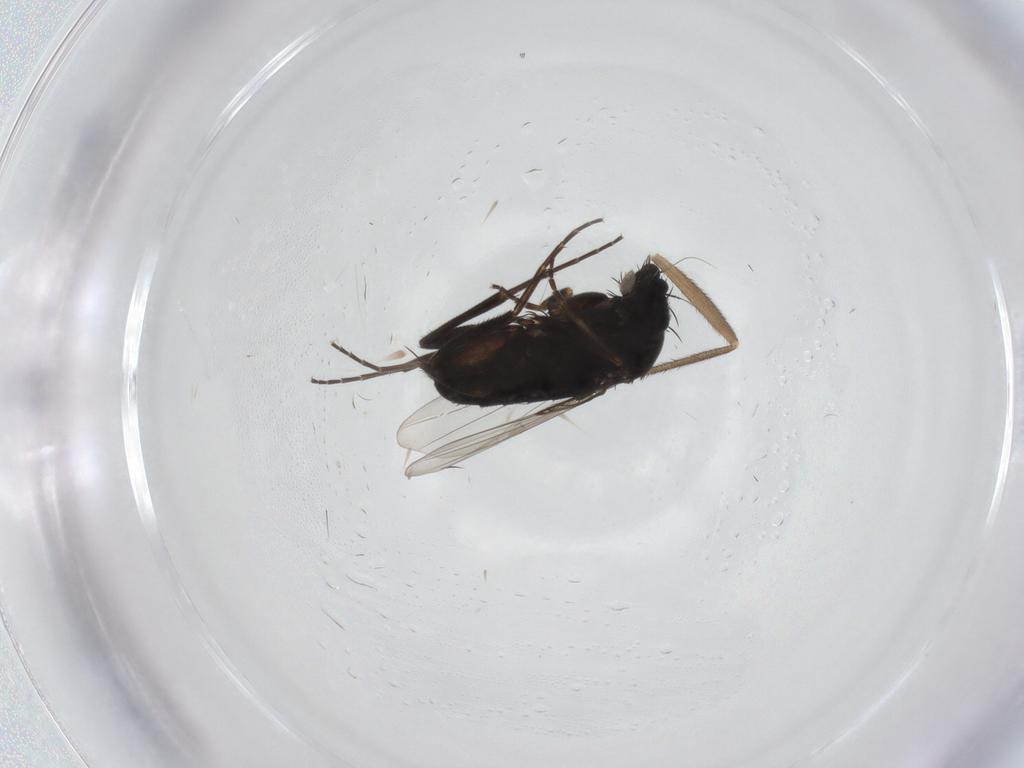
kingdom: Animalia
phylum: Arthropoda
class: Insecta
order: Diptera
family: Phoridae
